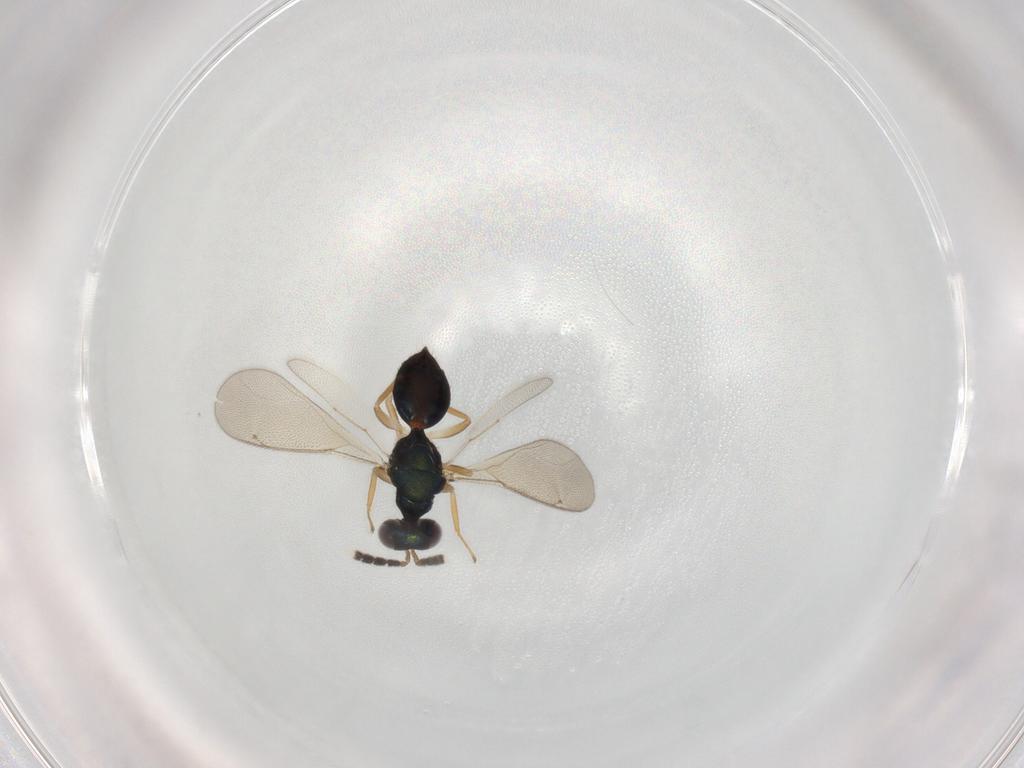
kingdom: Animalia
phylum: Arthropoda
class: Insecta
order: Hymenoptera
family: Eulophidae
